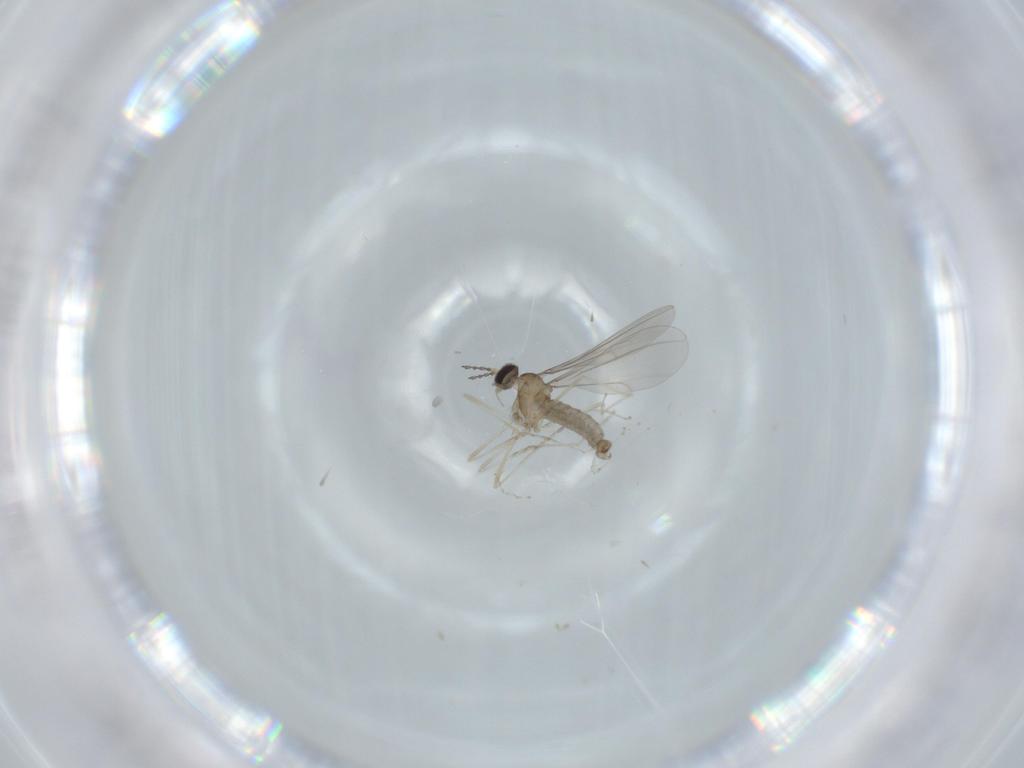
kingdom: Animalia
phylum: Arthropoda
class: Insecta
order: Diptera
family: Cecidomyiidae
